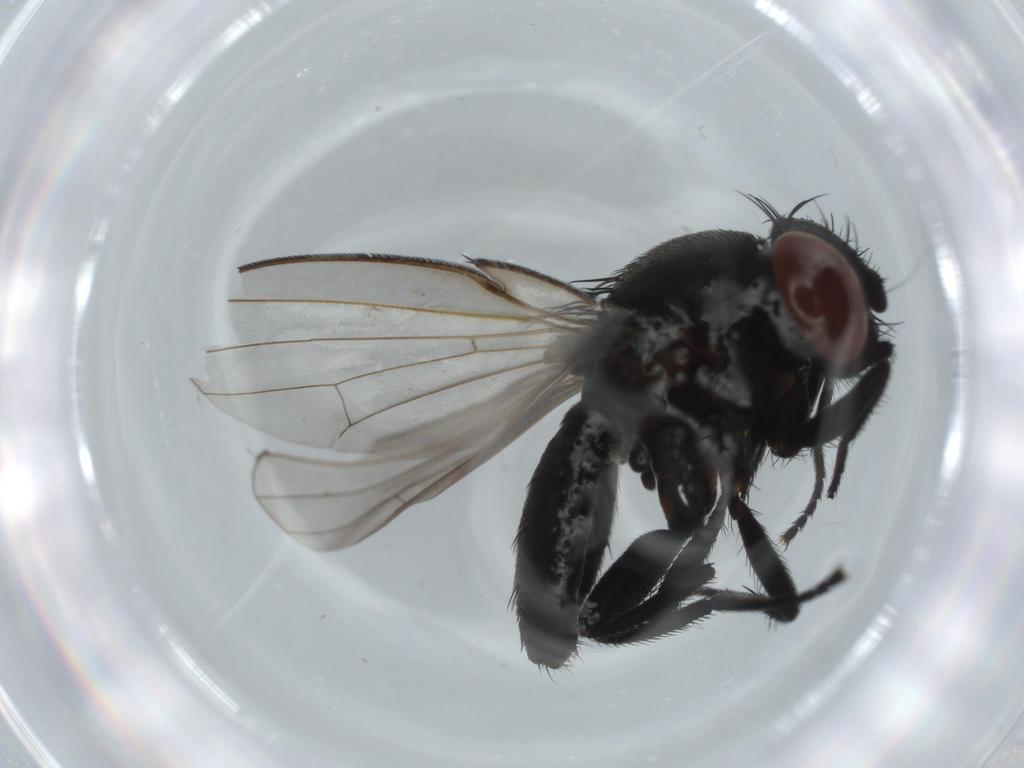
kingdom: Animalia
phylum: Arthropoda
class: Insecta
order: Diptera
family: Milichiidae
